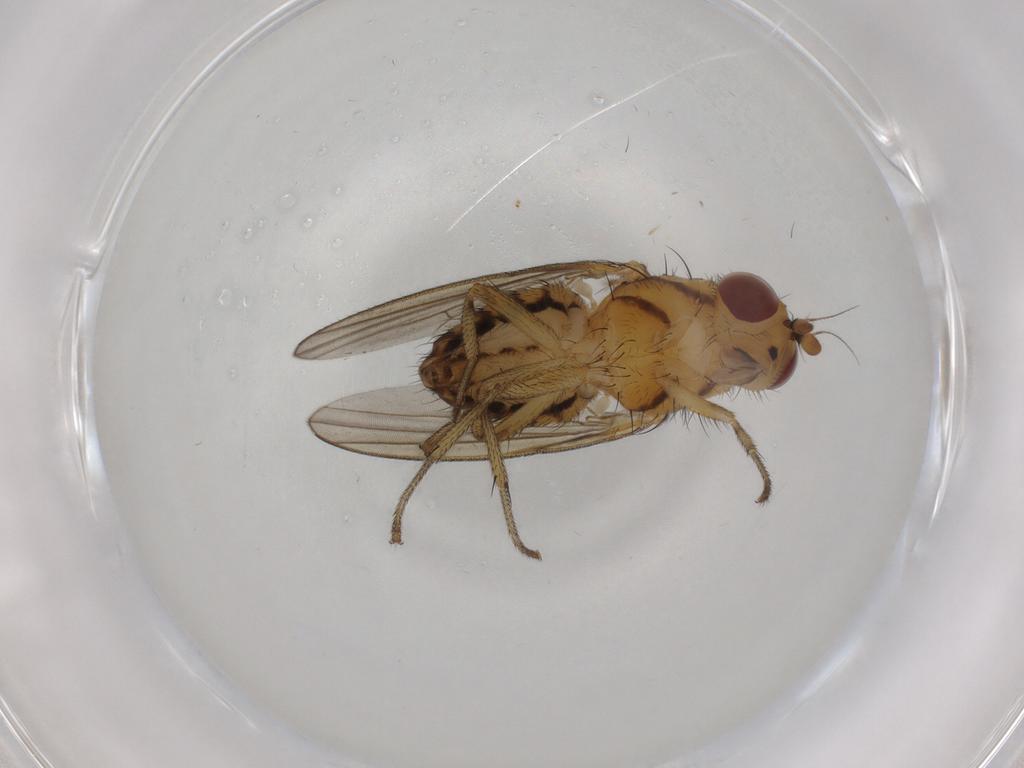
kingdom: Animalia
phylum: Arthropoda
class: Insecta
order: Diptera
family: Lauxaniidae
